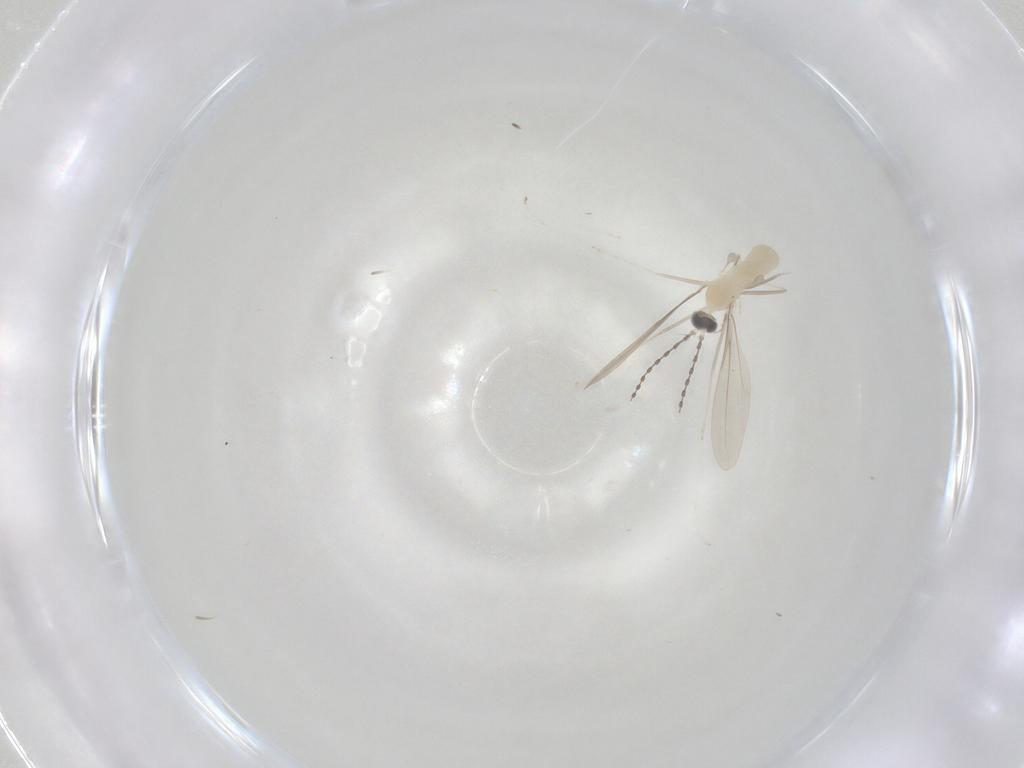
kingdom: Animalia
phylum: Arthropoda
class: Insecta
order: Diptera
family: Cecidomyiidae
